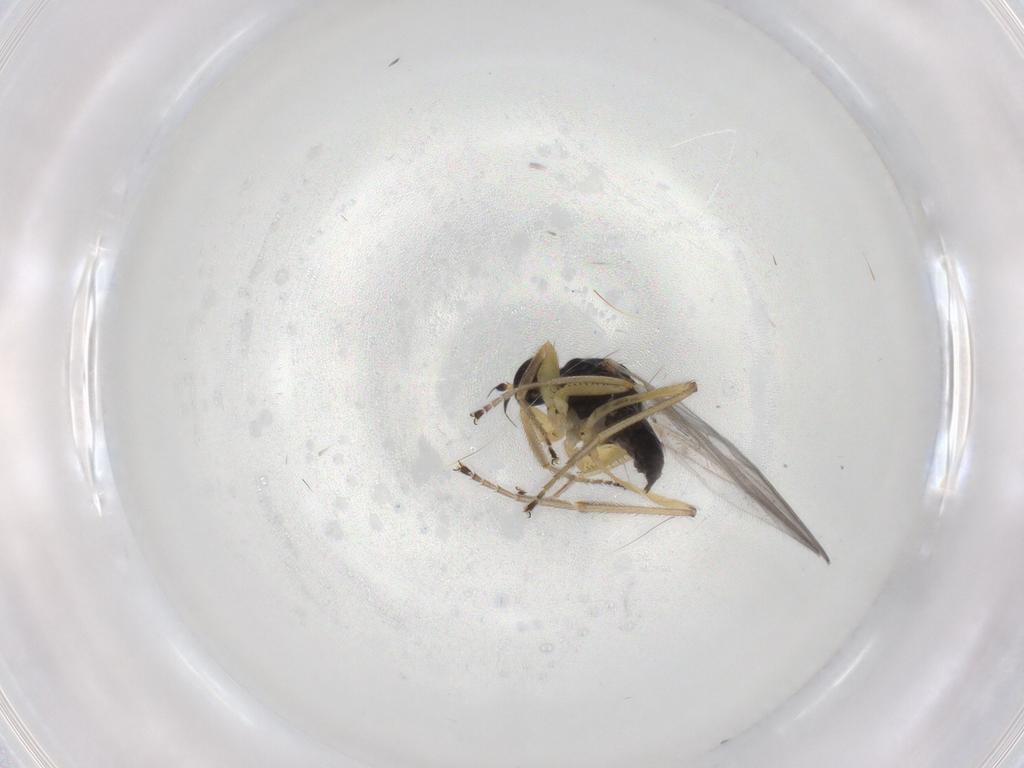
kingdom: Animalia
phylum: Arthropoda
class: Insecta
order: Diptera
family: Hybotidae
